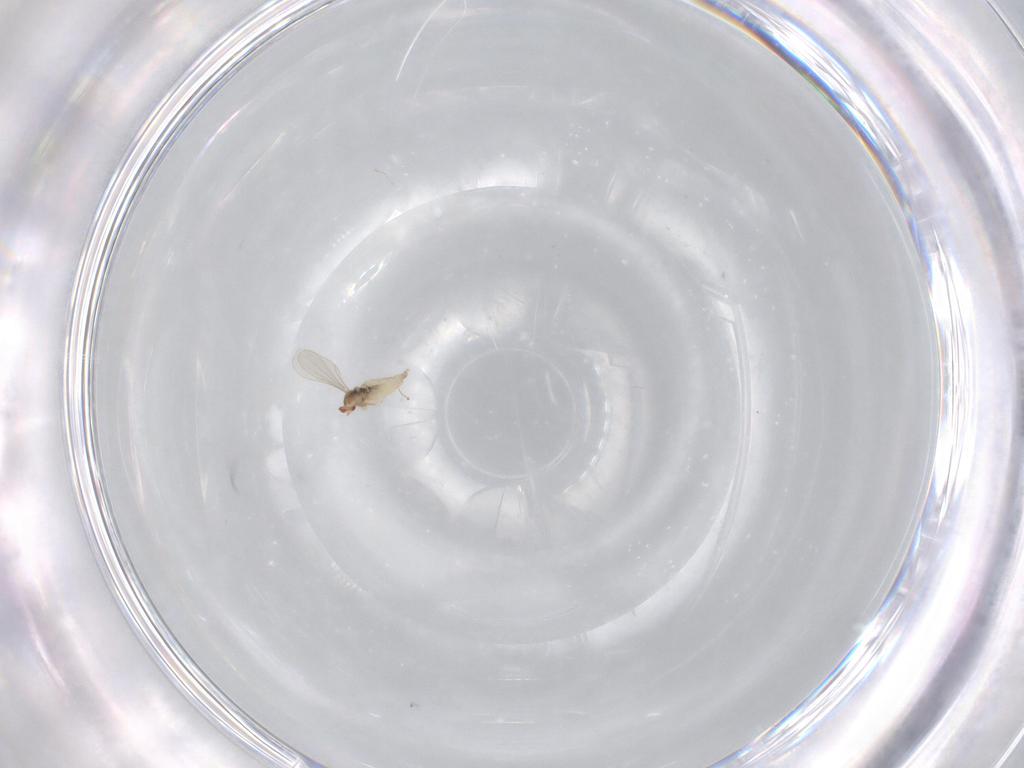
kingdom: Animalia
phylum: Arthropoda
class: Insecta
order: Diptera
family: Cecidomyiidae
